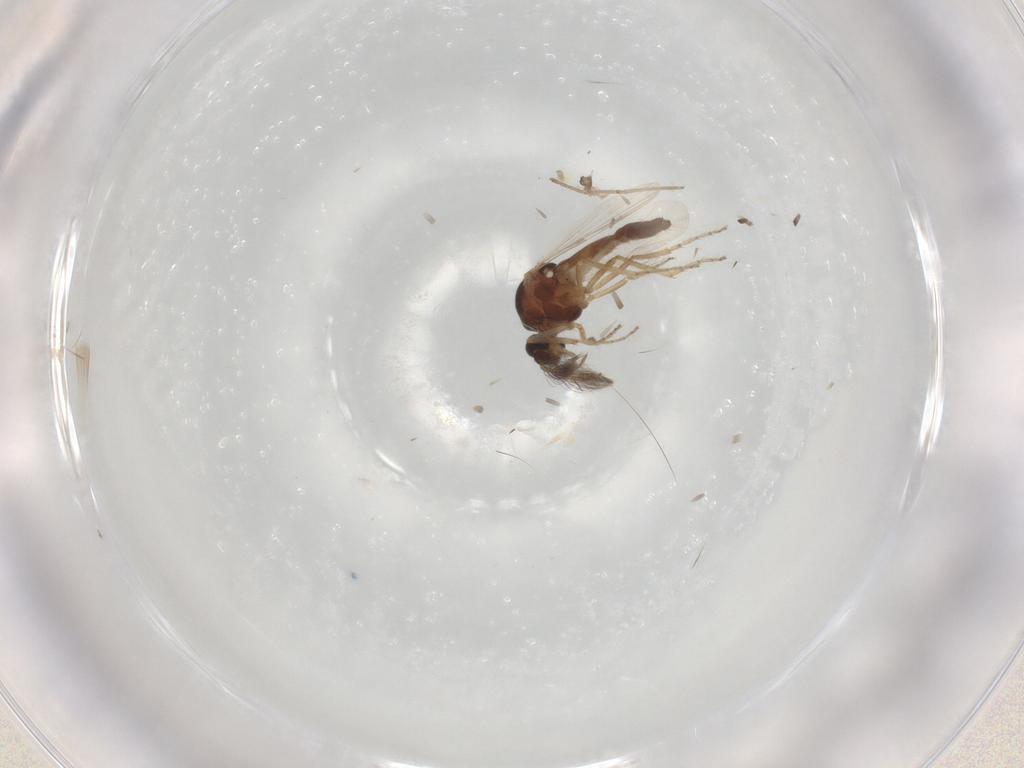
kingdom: Animalia
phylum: Arthropoda
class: Insecta
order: Diptera
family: Cecidomyiidae
